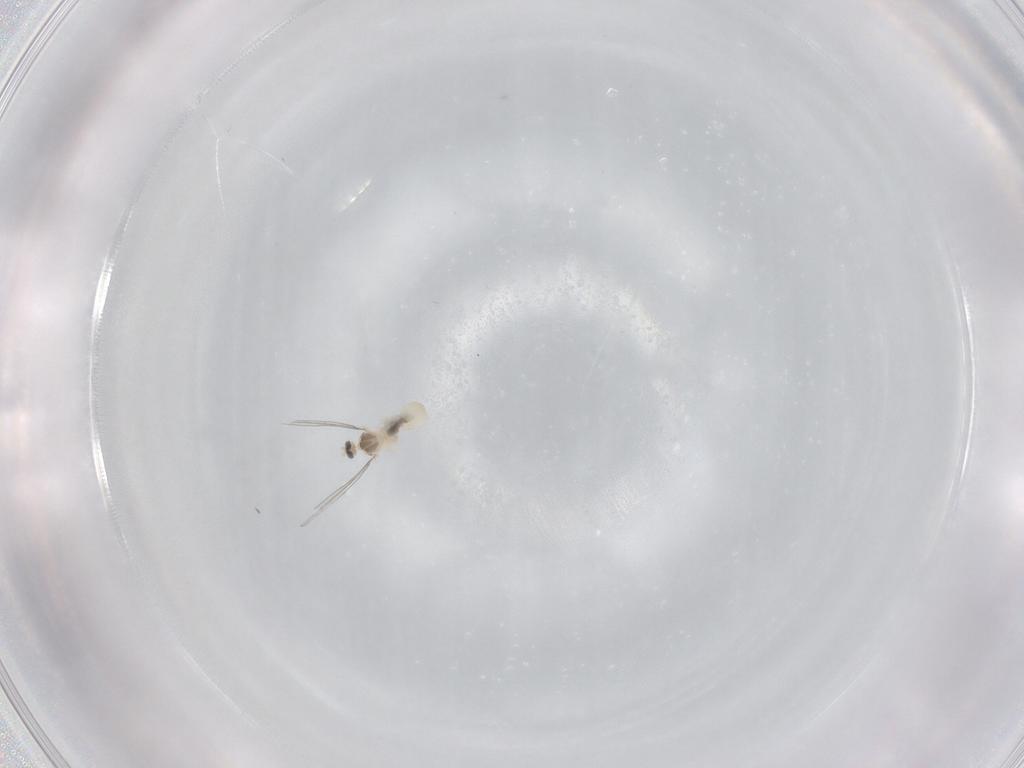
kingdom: Animalia
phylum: Arthropoda
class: Insecta
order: Diptera
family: Cecidomyiidae
